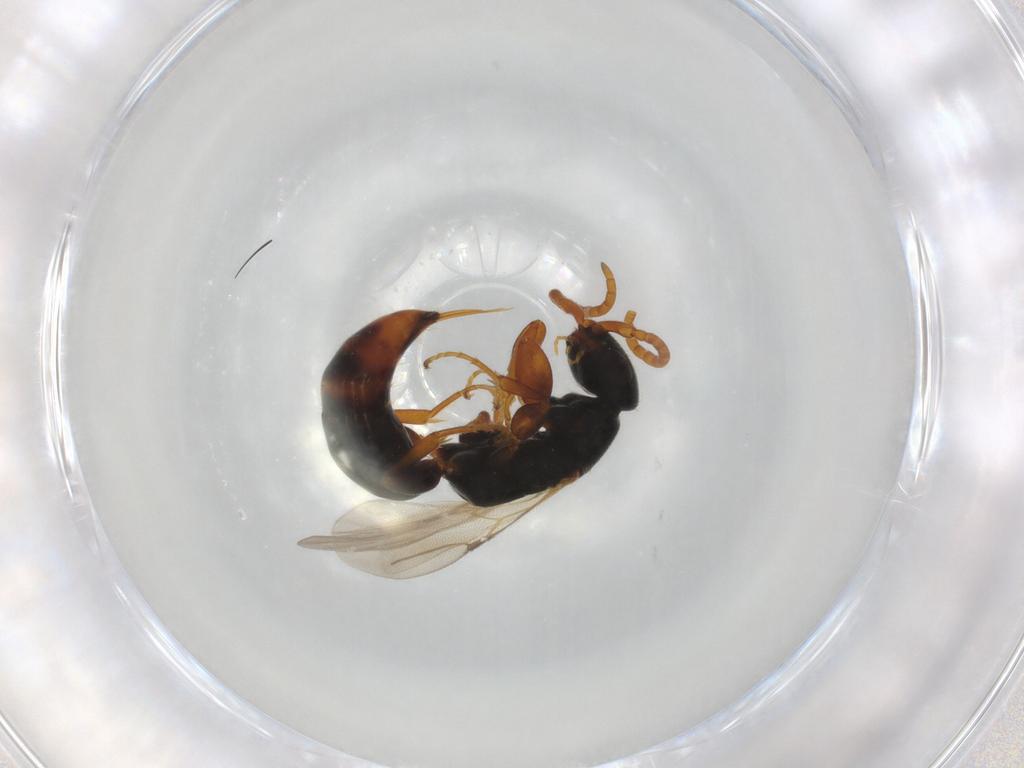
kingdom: Animalia
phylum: Arthropoda
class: Insecta
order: Hymenoptera
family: Bethylidae
